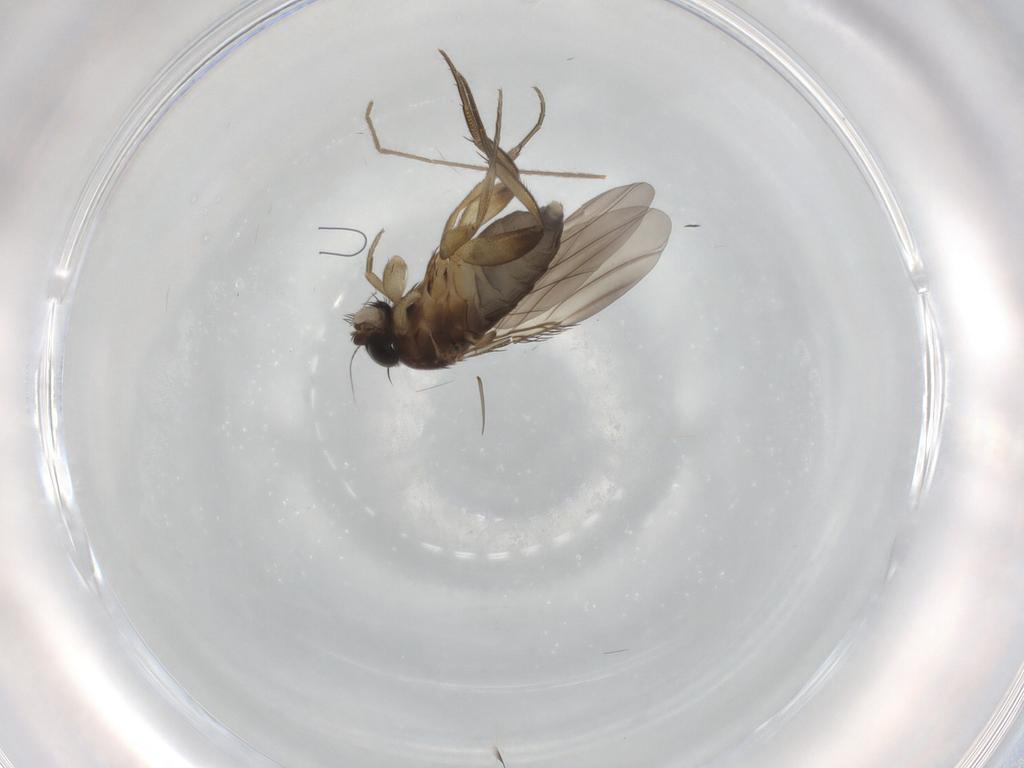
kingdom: Animalia
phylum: Arthropoda
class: Insecta
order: Diptera
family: Phoridae
